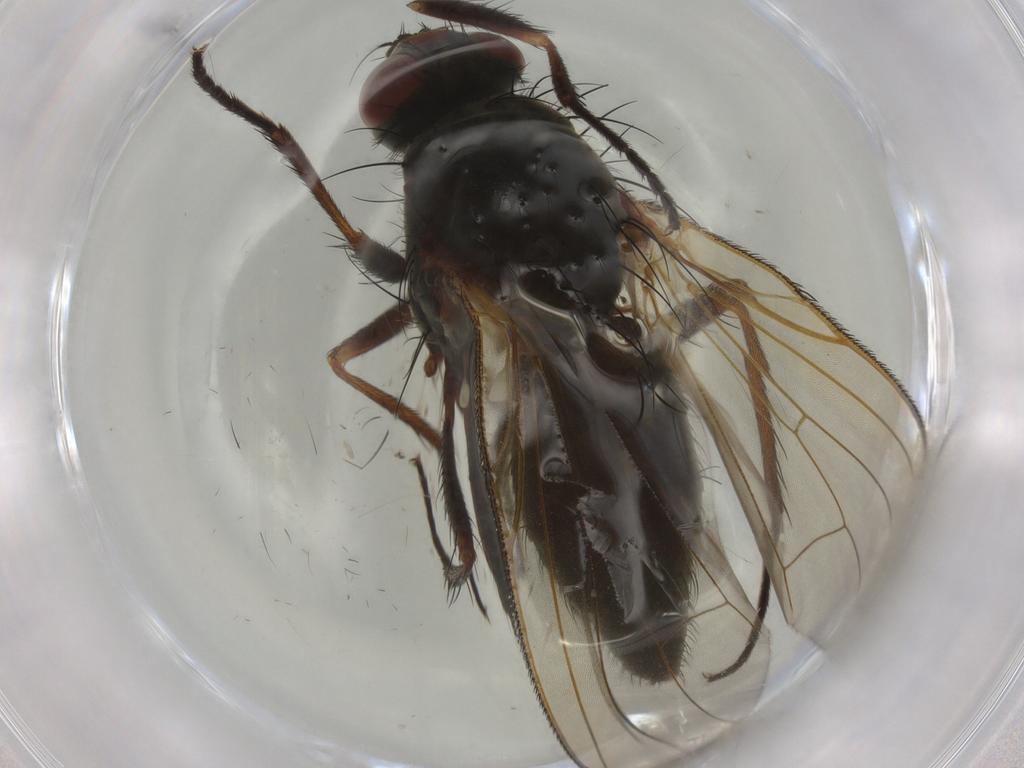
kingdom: Animalia
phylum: Arthropoda
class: Insecta
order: Diptera
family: Anthomyiidae
